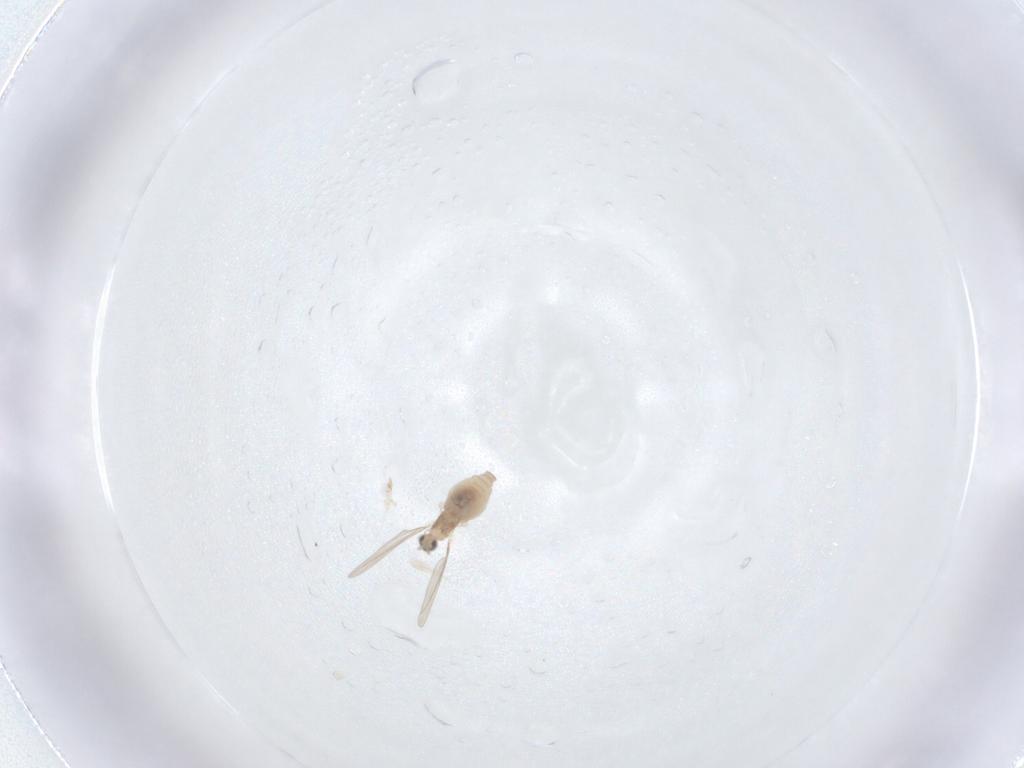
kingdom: Animalia
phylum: Arthropoda
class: Insecta
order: Diptera
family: Cecidomyiidae
